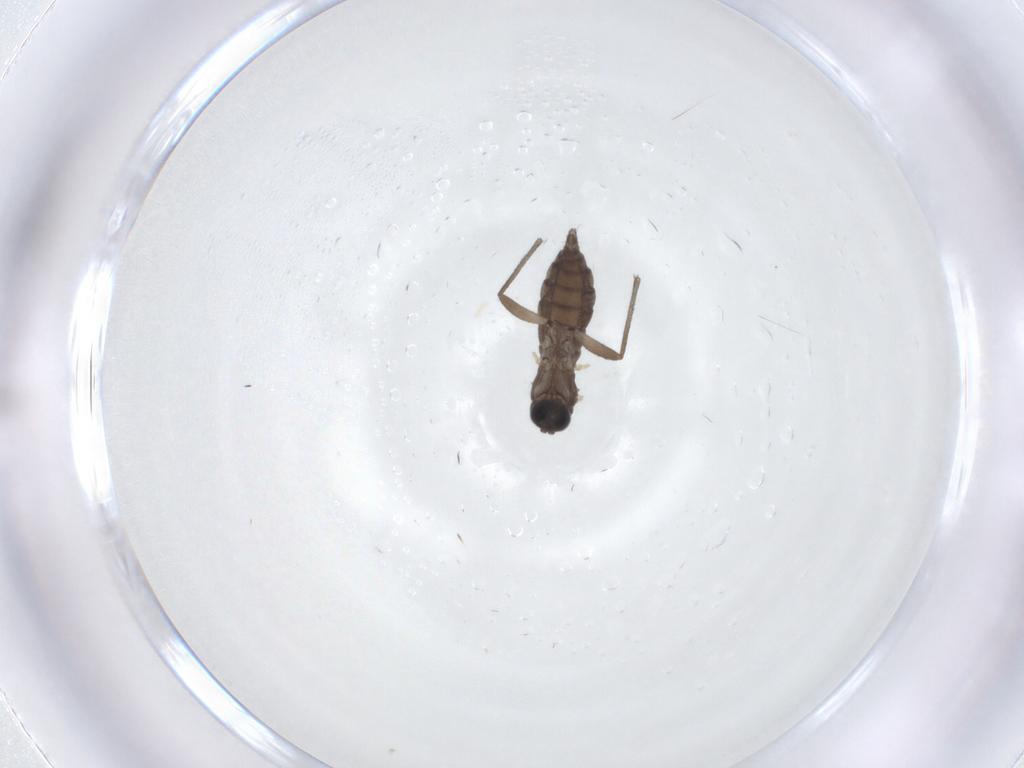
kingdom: Animalia
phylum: Arthropoda
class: Insecta
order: Diptera
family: Sciaridae
